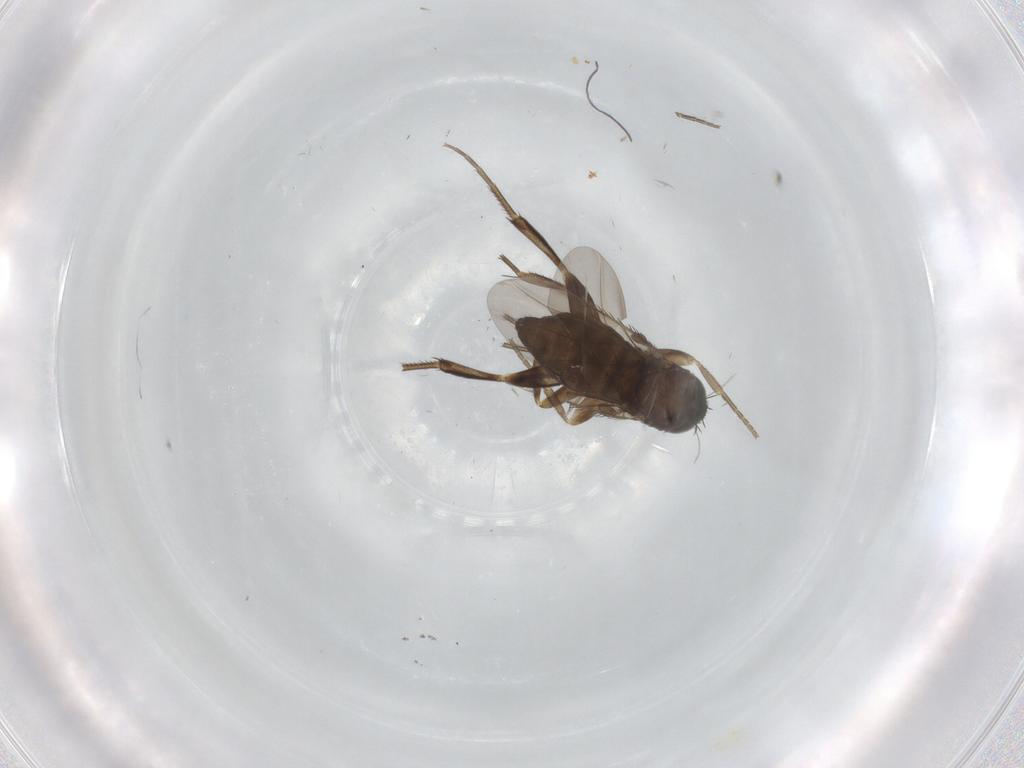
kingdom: Animalia
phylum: Arthropoda
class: Insecta
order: Diptera
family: Phoridae
